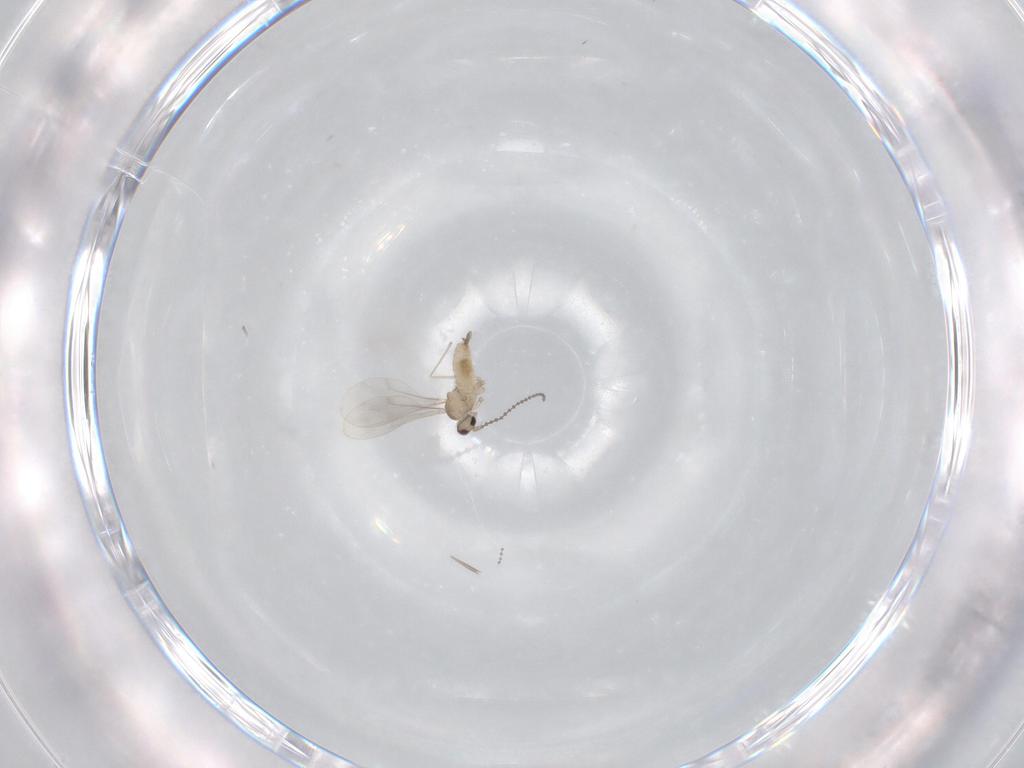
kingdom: Animalia
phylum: Arthropoda
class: Insecta
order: Diptera
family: Cecidomyiidae
